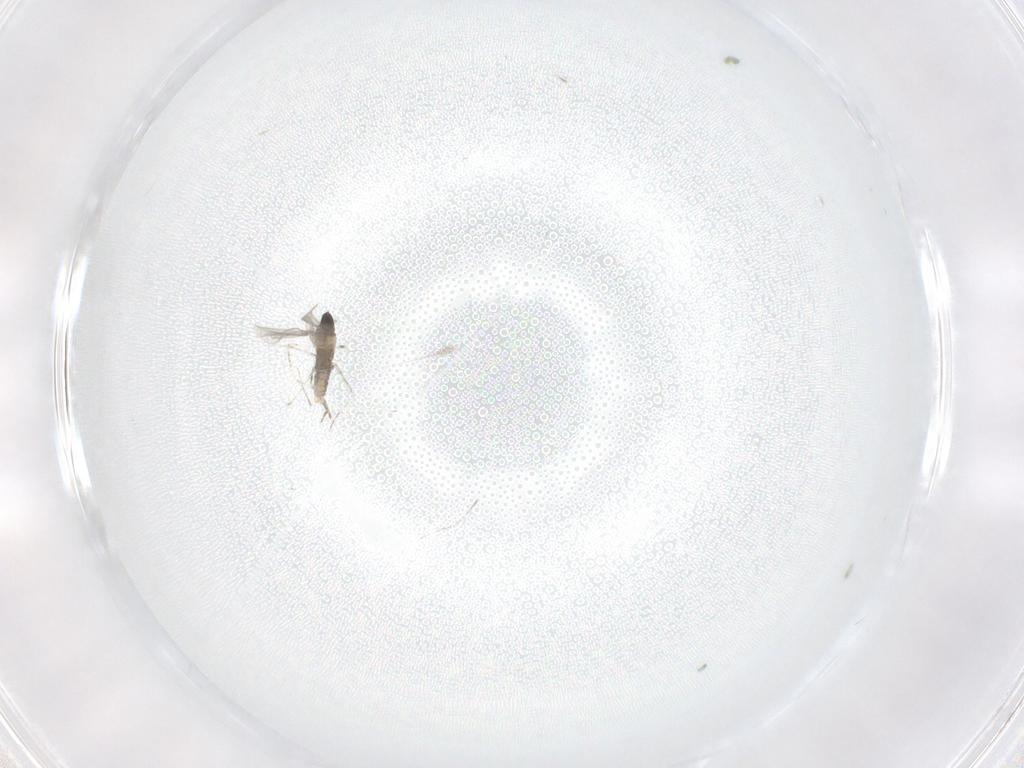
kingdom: Animalia
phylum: Arthropoda
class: Insecta
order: Diptera
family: Cecidomyiidae
